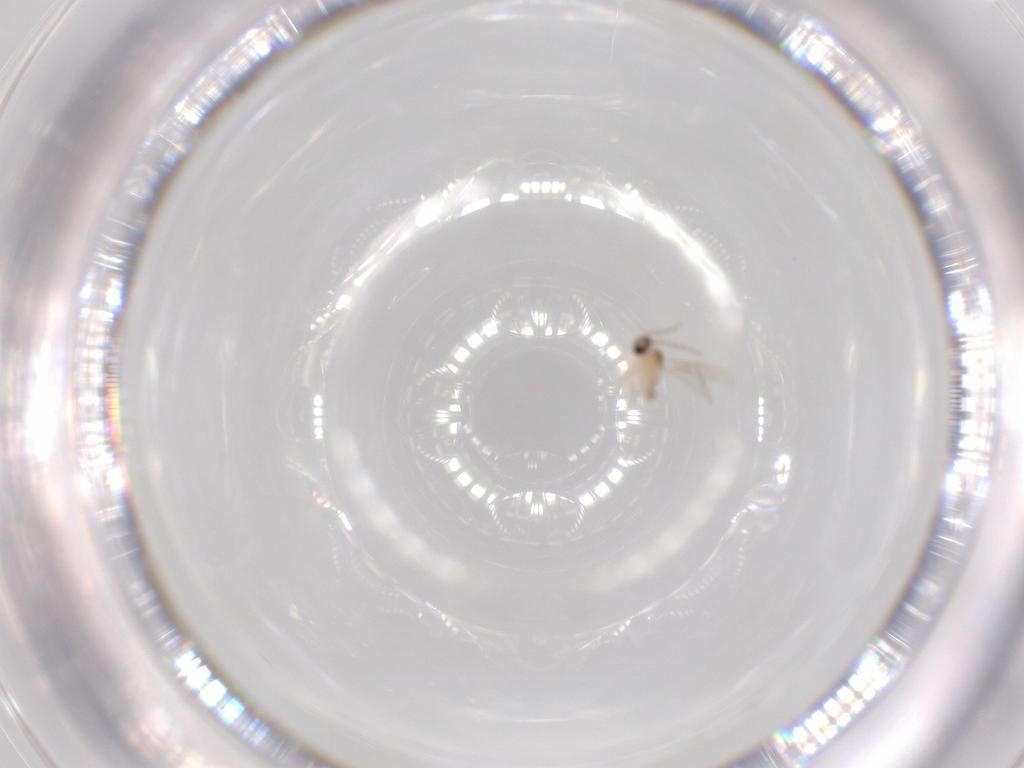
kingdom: Animalia
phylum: Arthropoda
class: Insecta
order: Diptera
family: Cecidomyiidae
